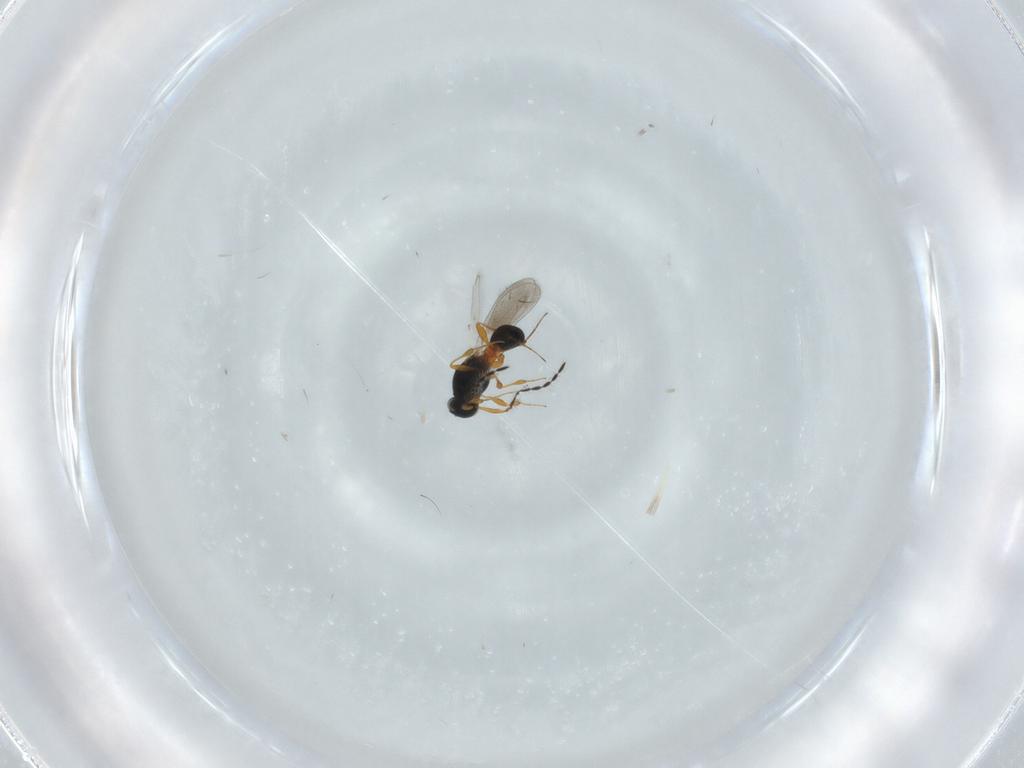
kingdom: Animalia
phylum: Arthropoda
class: Insecta
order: Hymenoptera
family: Platygastridae
